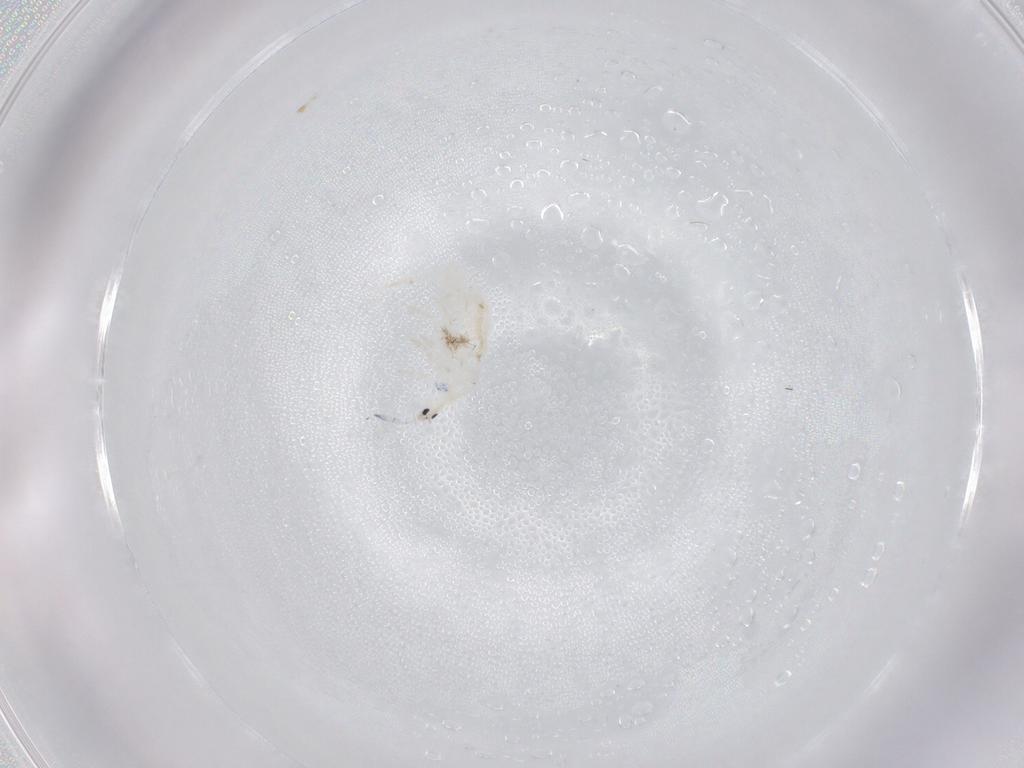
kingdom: Animalia
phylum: Arthropoda
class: Collembola
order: Entomobryomorpha
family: Entomobryidae
